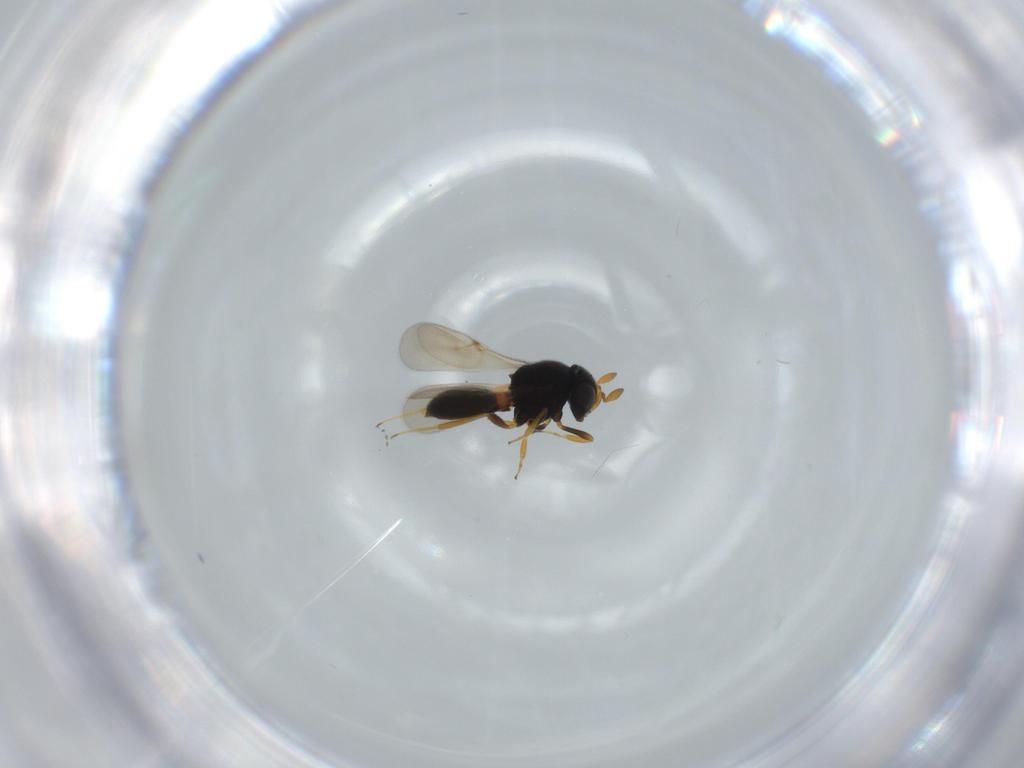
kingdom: Animalia
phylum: Arthropoda
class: Insecta
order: Hymenoptera
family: Scelionidae
